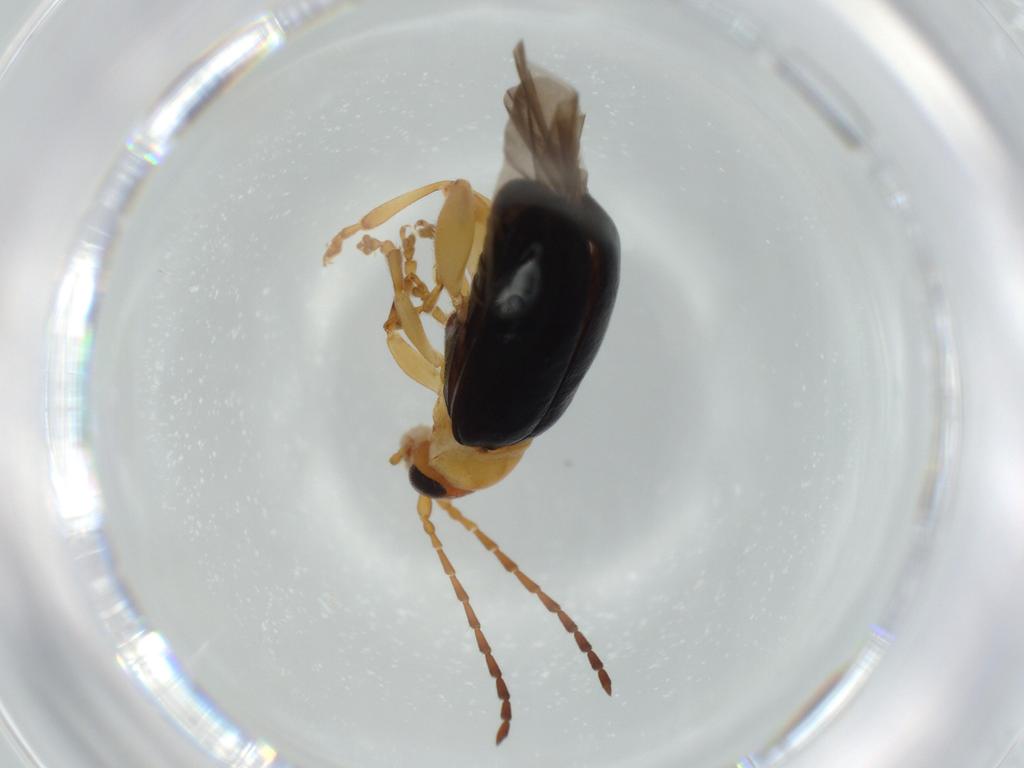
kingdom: Animalia
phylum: Arthropoda
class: Insecta
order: Coleoptera
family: Chrysomelidae
